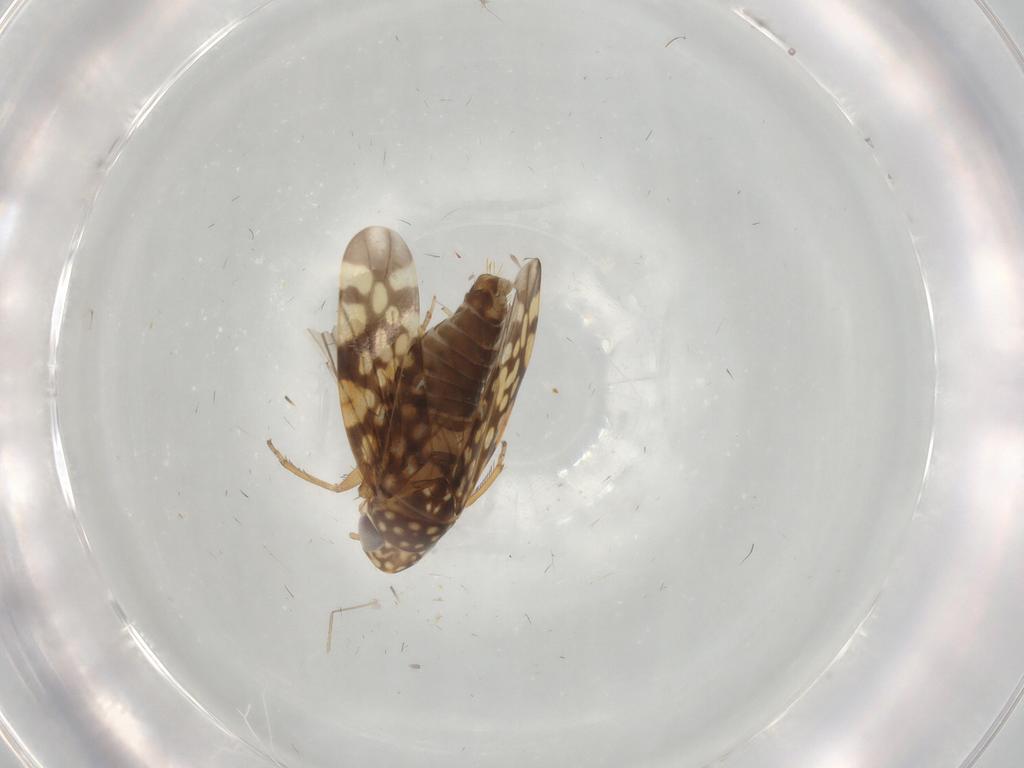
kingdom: Animalia
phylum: Arthropoda
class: Insecta
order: Hemiptera
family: Cicadellidae
